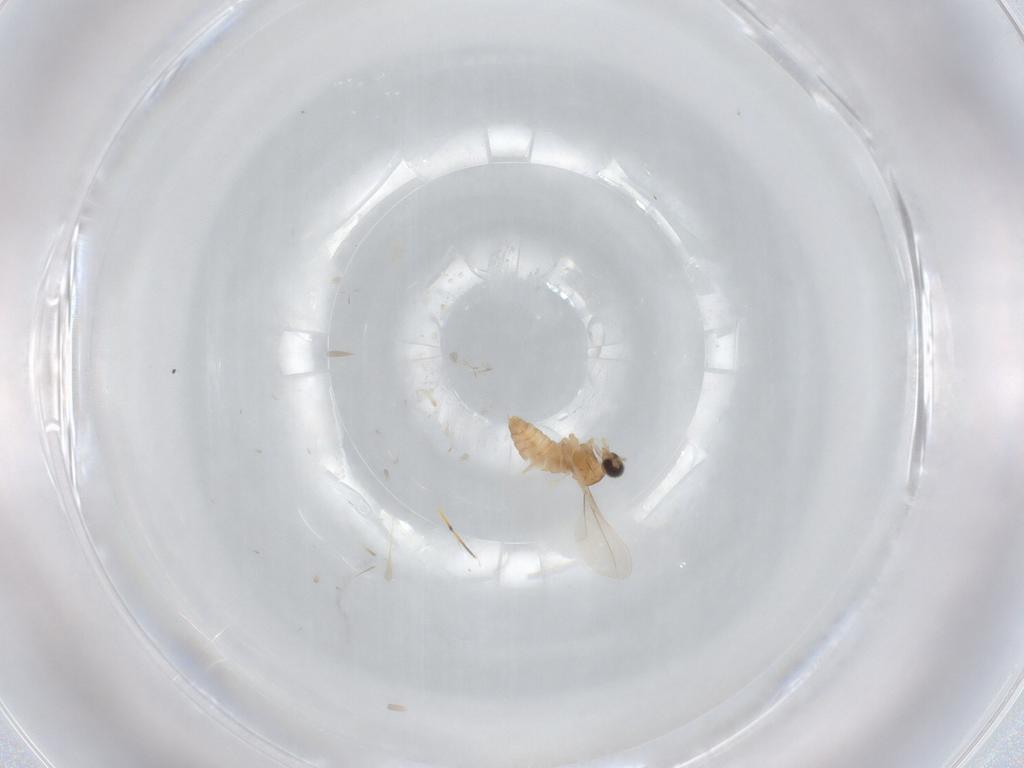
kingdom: Animalia
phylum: Arthropoda
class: Insecta
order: Diptera
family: Cecidomyiidae
